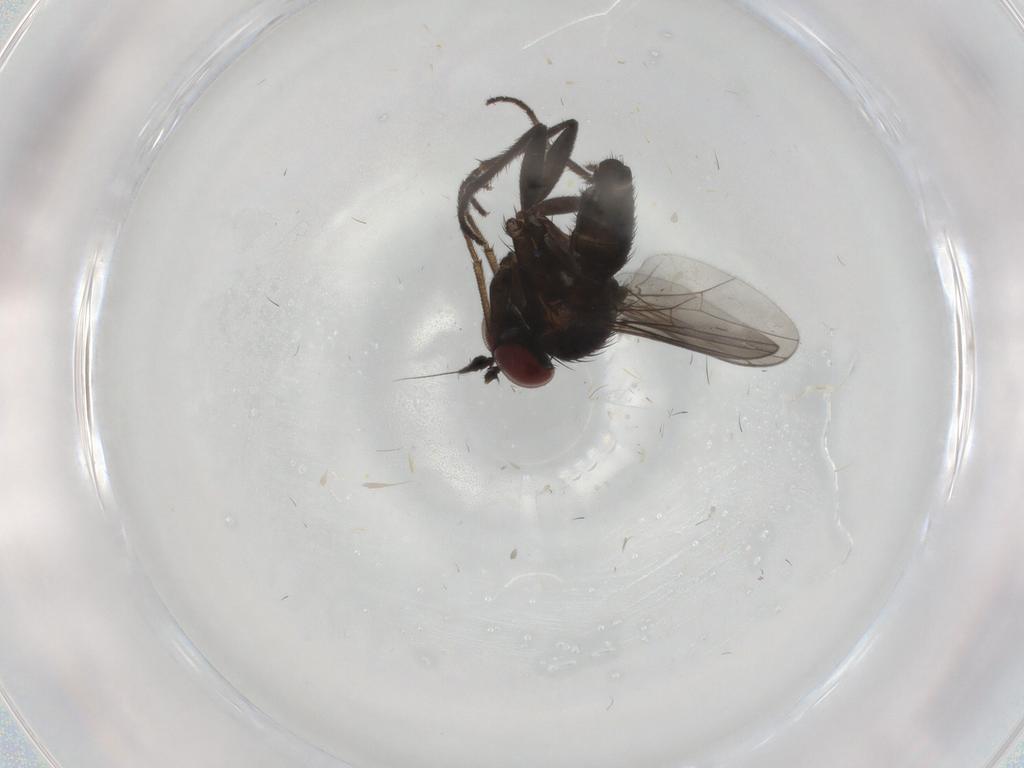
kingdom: Animalia
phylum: Arthropoda
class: Insecta
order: Diptera
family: Dolichopodidae
